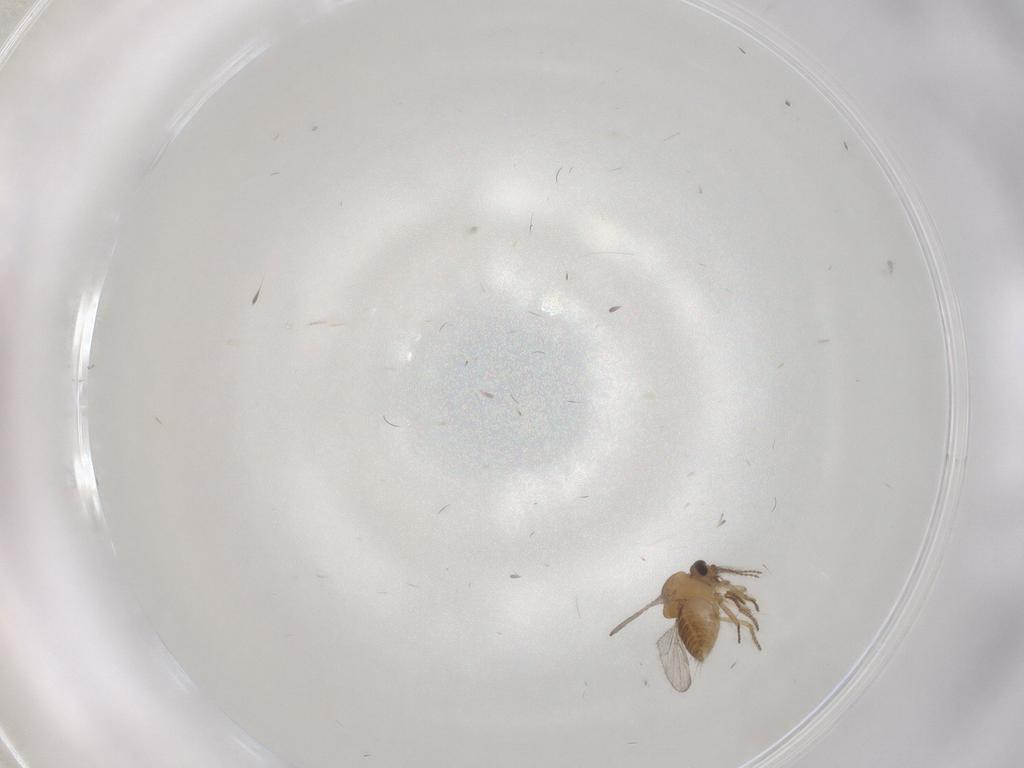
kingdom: Animalia
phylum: Arthropoda
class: Insecta
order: Diptera
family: Ceratopogonidae
